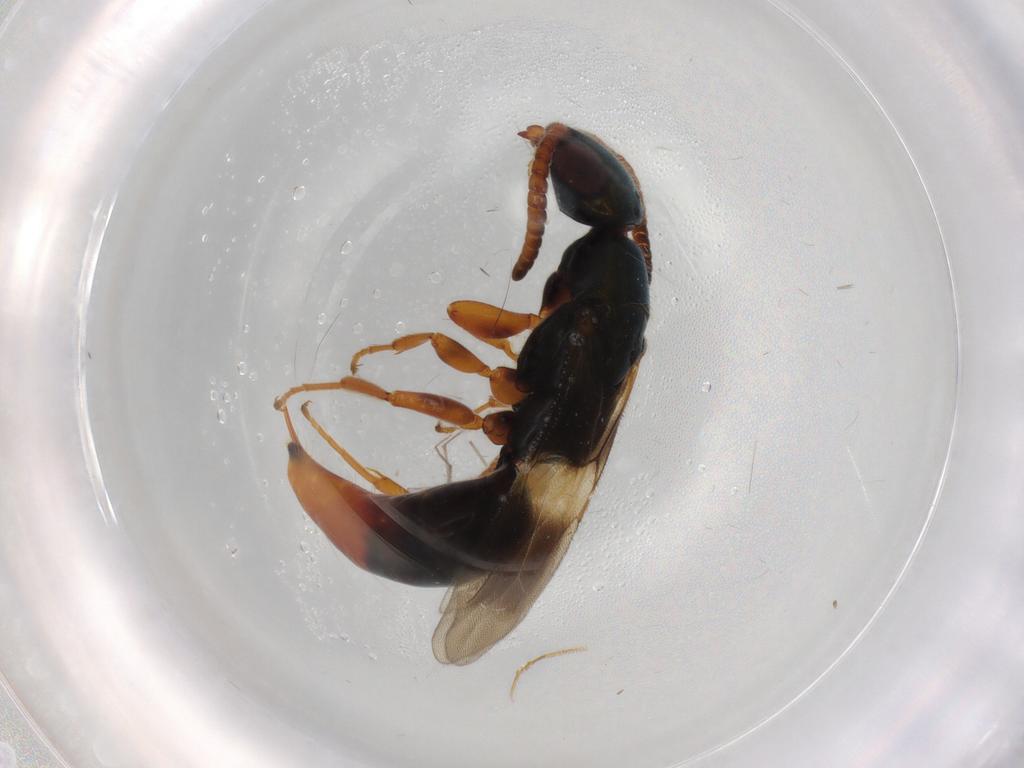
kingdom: Animalia
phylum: Arthropoda
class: Insecta
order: Hymenoptera
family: Bethylidae
